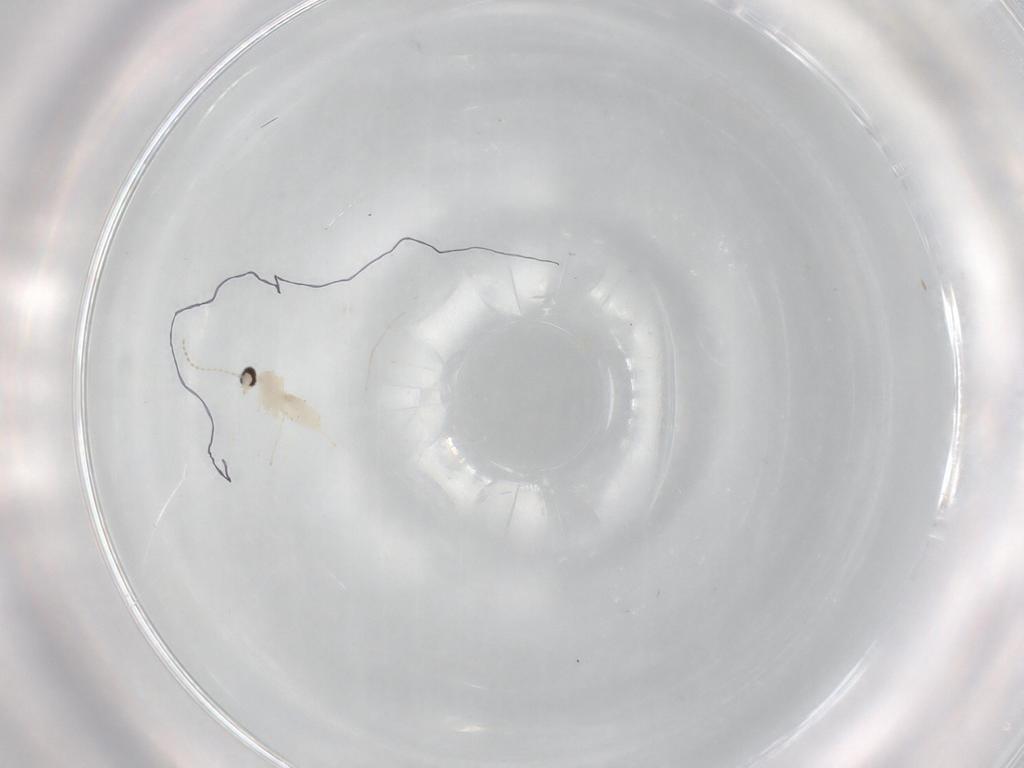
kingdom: Animalia
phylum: Arthropoda
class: Insecta
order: Diptera
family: Cecidomyiidae
